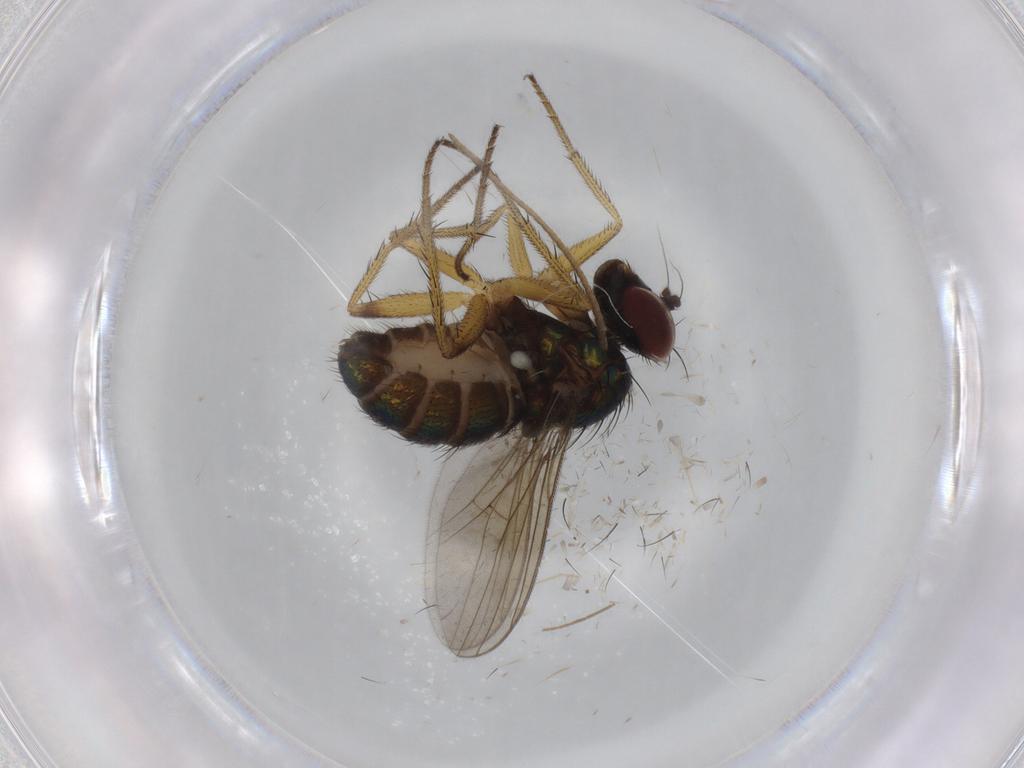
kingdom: Animalia
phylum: Arthropoda
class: Insecta
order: Diptera
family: Dolichopodidae
